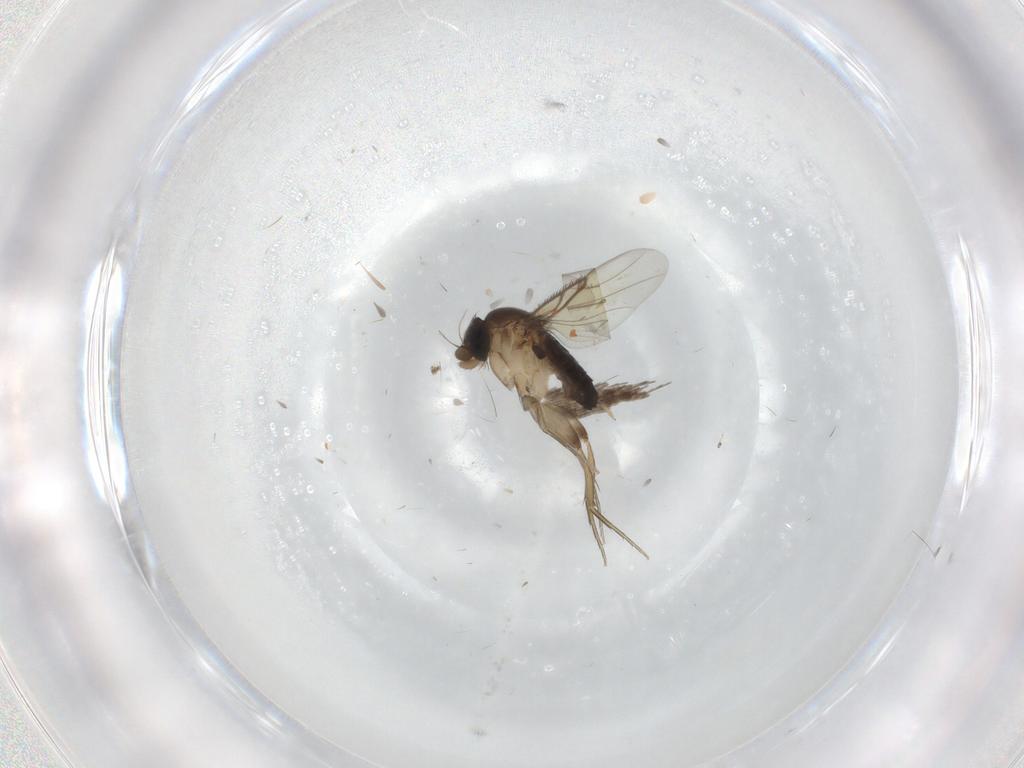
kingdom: Animalia
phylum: Arthropoda
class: Insecta
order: Diptera
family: Phoridae
